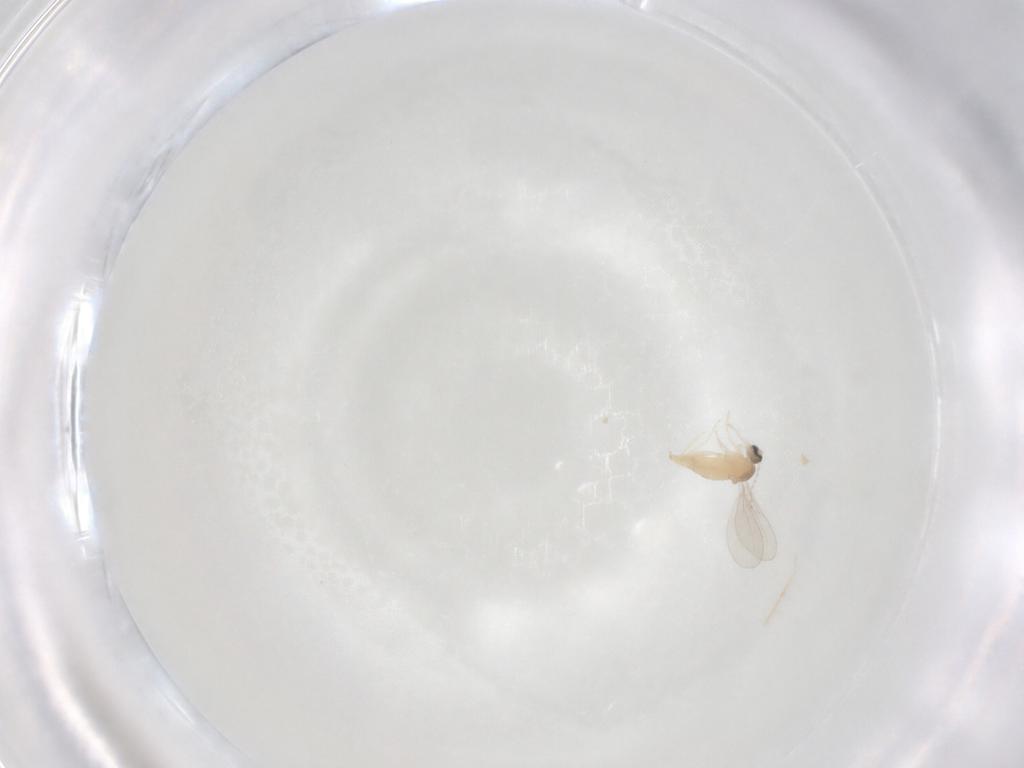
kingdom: Animalia
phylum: Arthropoda
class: Insecta
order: Diptera
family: Cecidomyiidae
